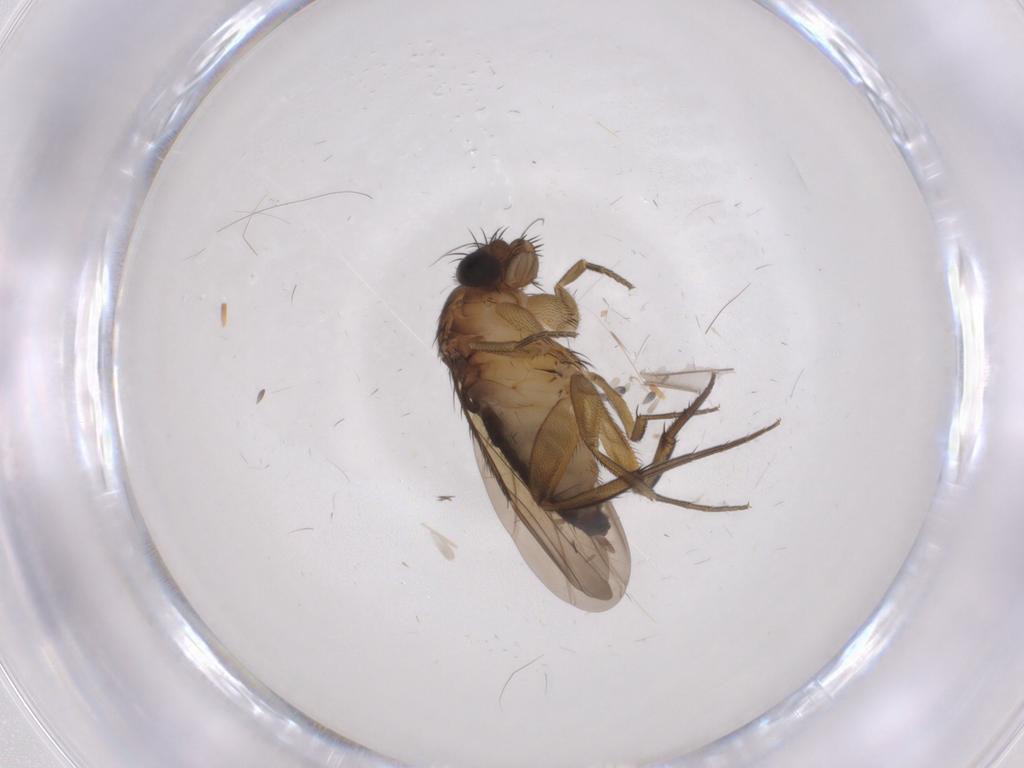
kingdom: Animalia
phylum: Arthropoda
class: Insecta
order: Diptera
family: Phoridae
